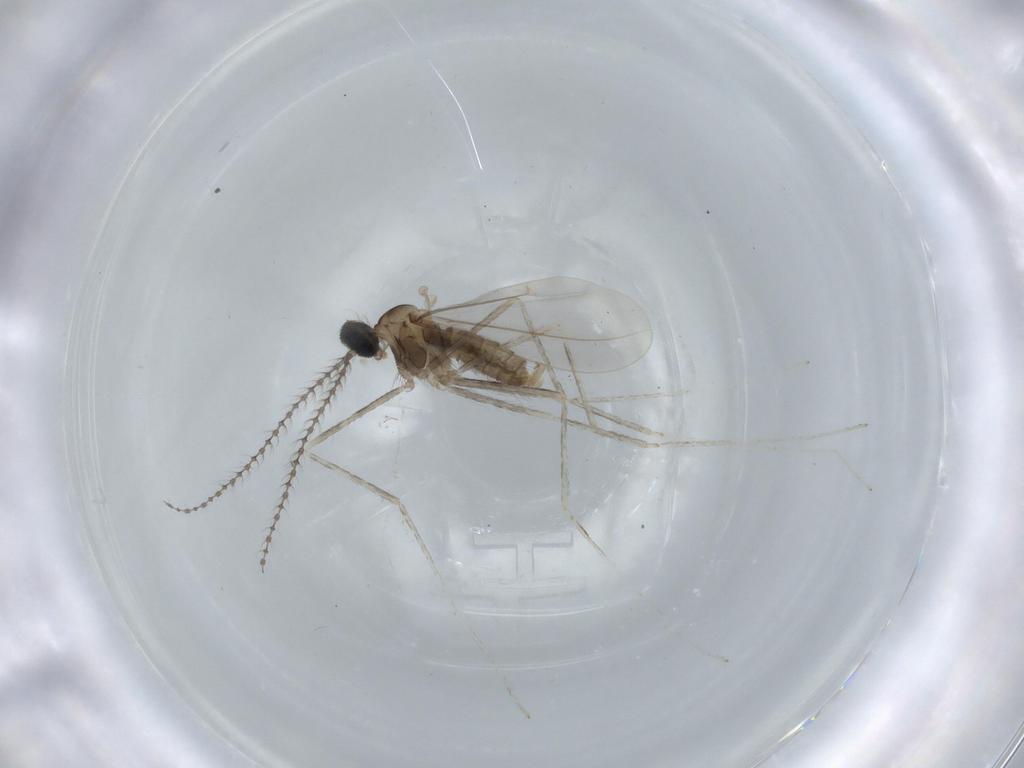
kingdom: Animalia
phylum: Arthropoda
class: Insecta
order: Diptera
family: Cecidomyiidae
